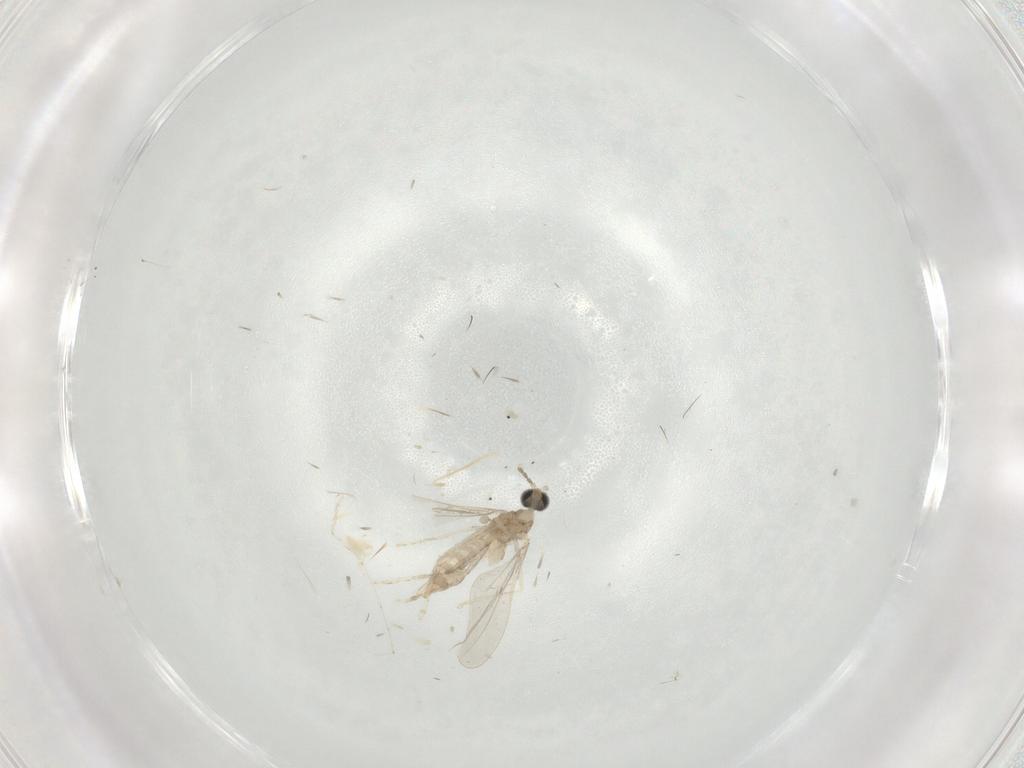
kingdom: Animalia
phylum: Arthropoda
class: Insecta
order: Diptera
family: Cecidomyiidae
